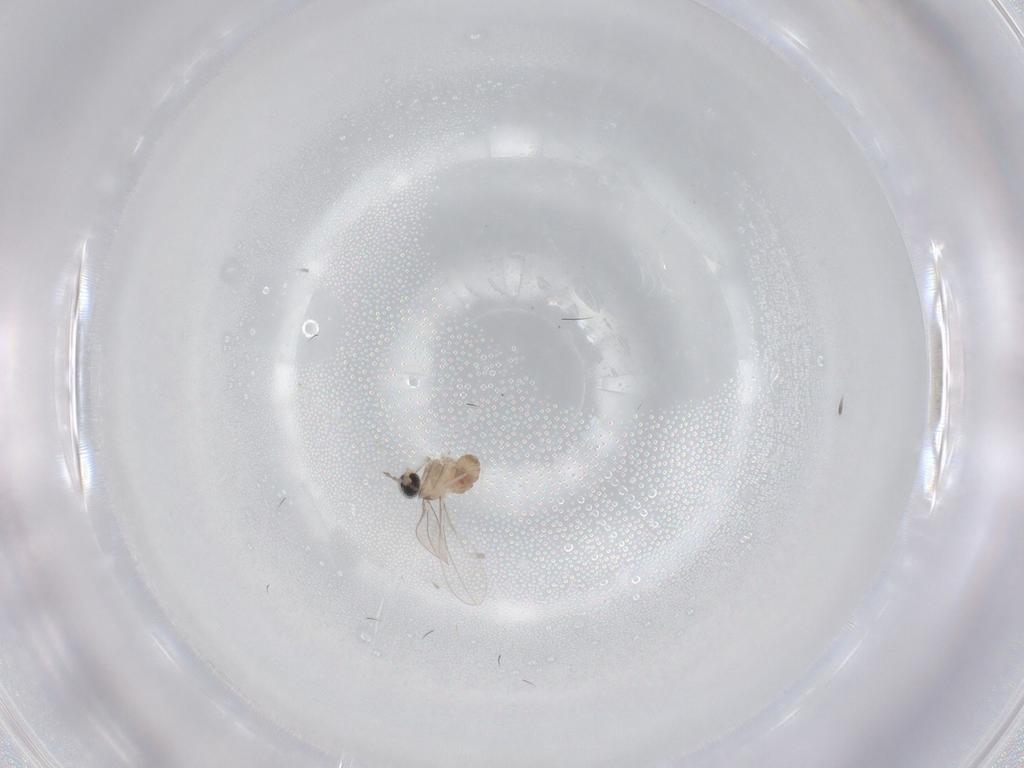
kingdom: Animalia
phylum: Arthropoda
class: Insecta
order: Diptera
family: Cecidomyiidae
